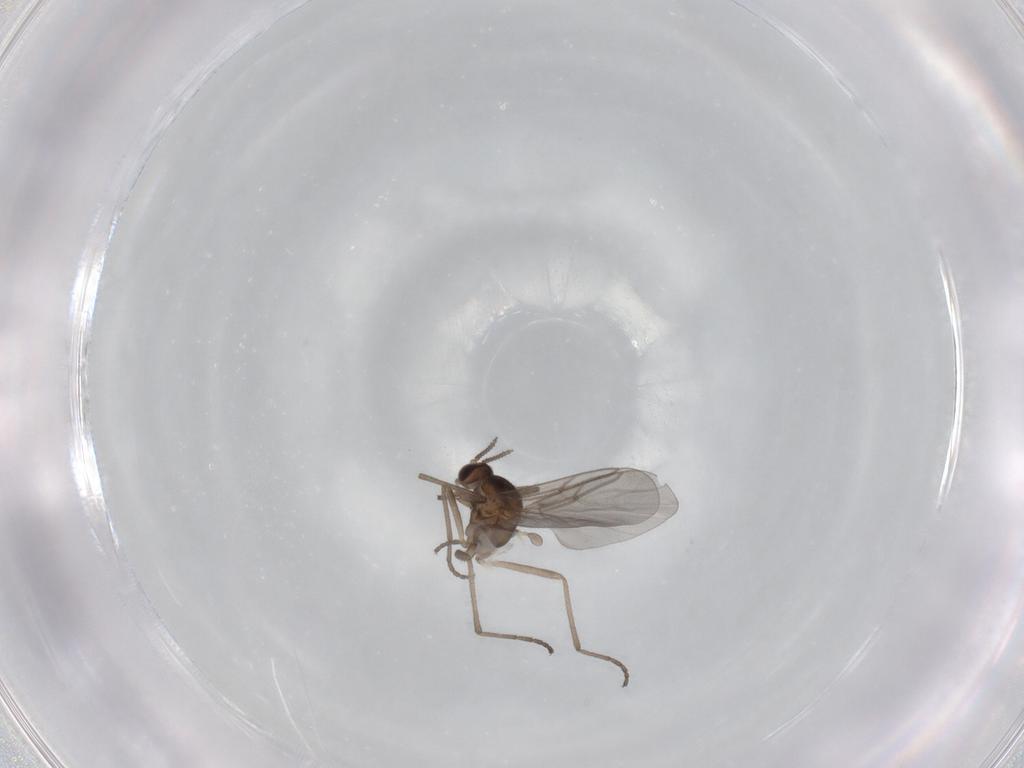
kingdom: Animalia
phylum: Arthropoda
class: Insecta
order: Diptera
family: Cecidomyiidae
